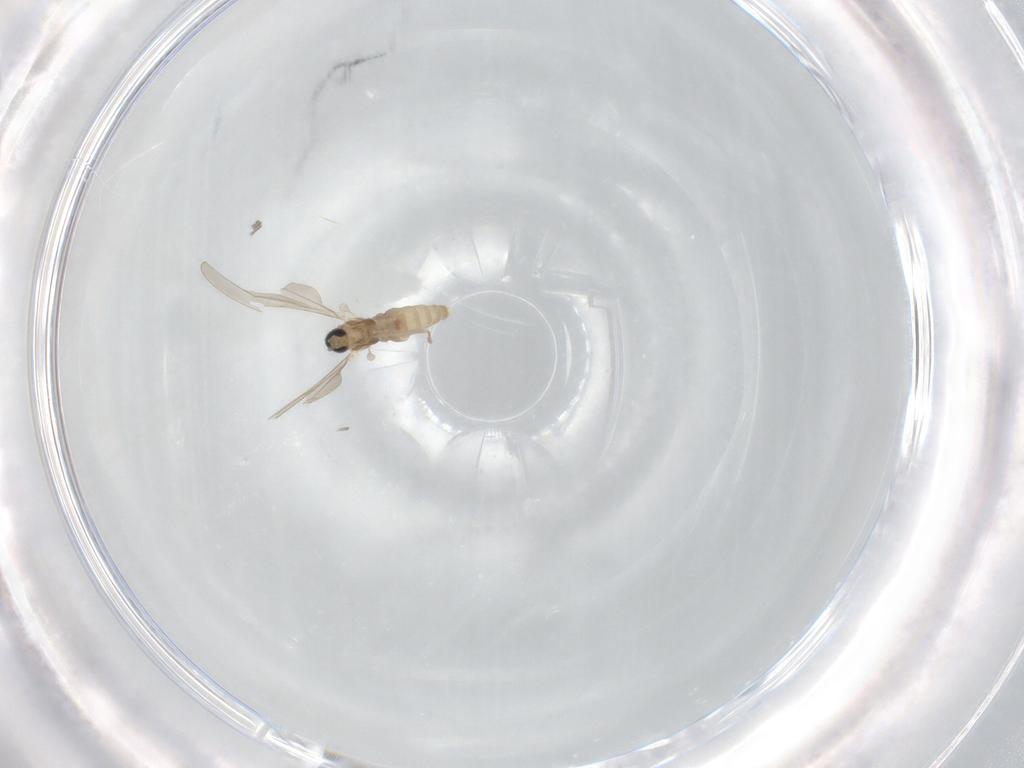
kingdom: Animalia
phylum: Arthropoda
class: Insecta
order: Diptera
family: Cecidomyiidae
